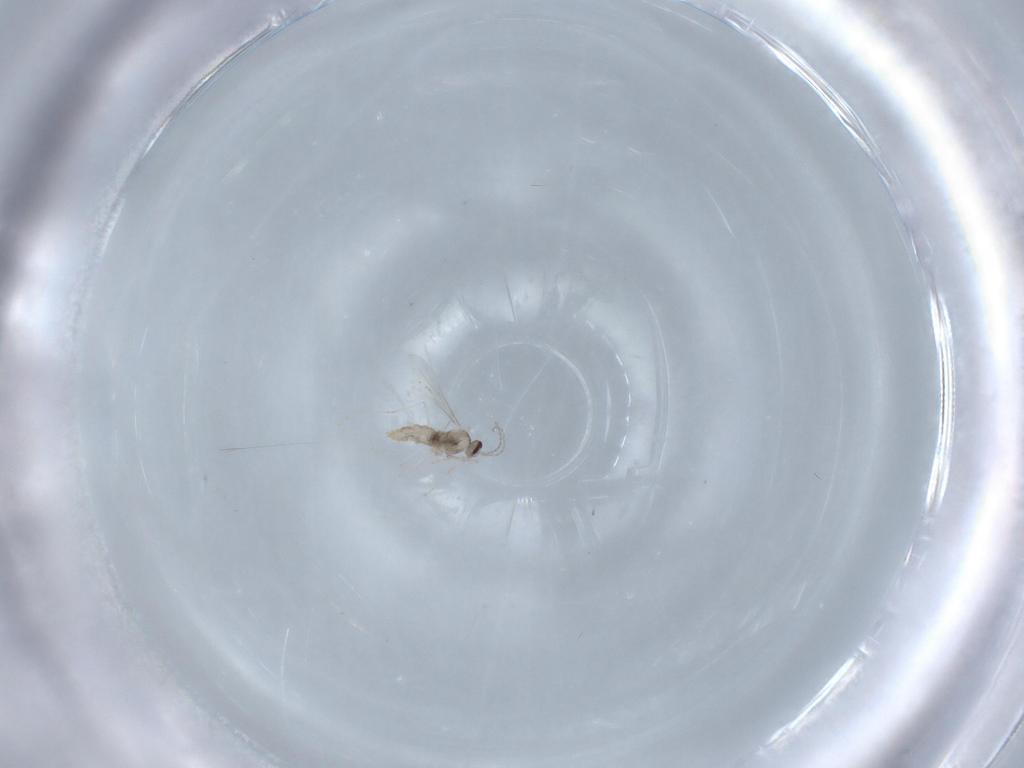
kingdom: Animalia
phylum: Arthropoda
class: Insecta
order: Diptera
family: Cecidomyiidae
